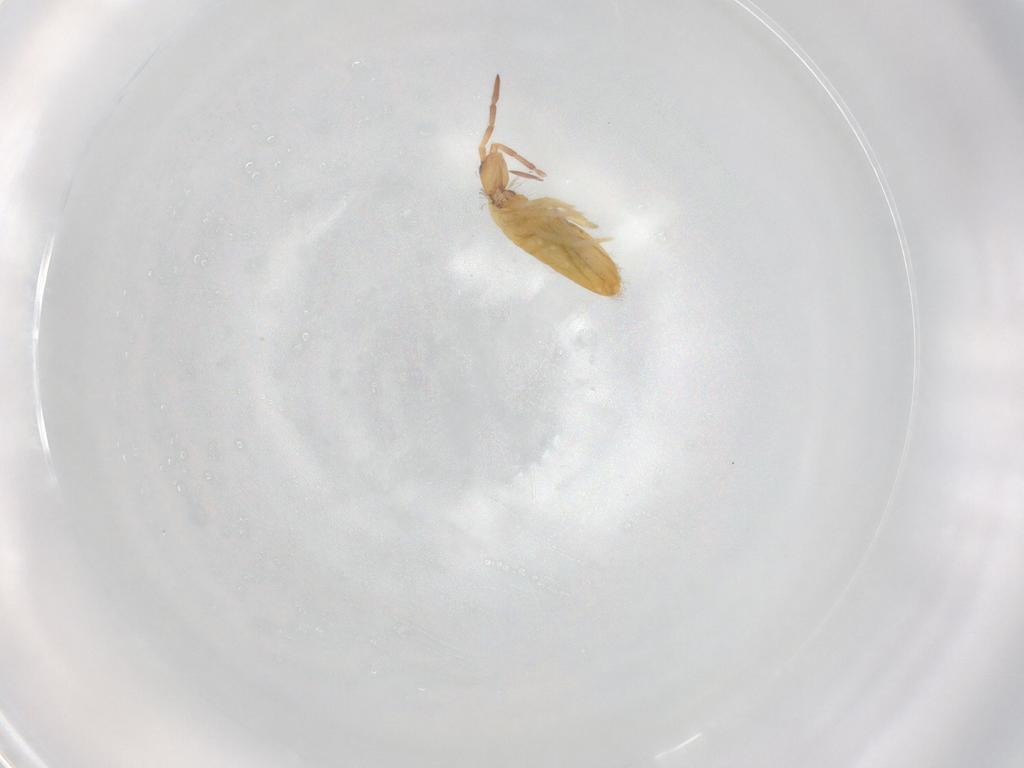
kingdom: Animalia
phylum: Arthropoda
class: Collembola
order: Entomobryomorpha
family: Entomobryidae
